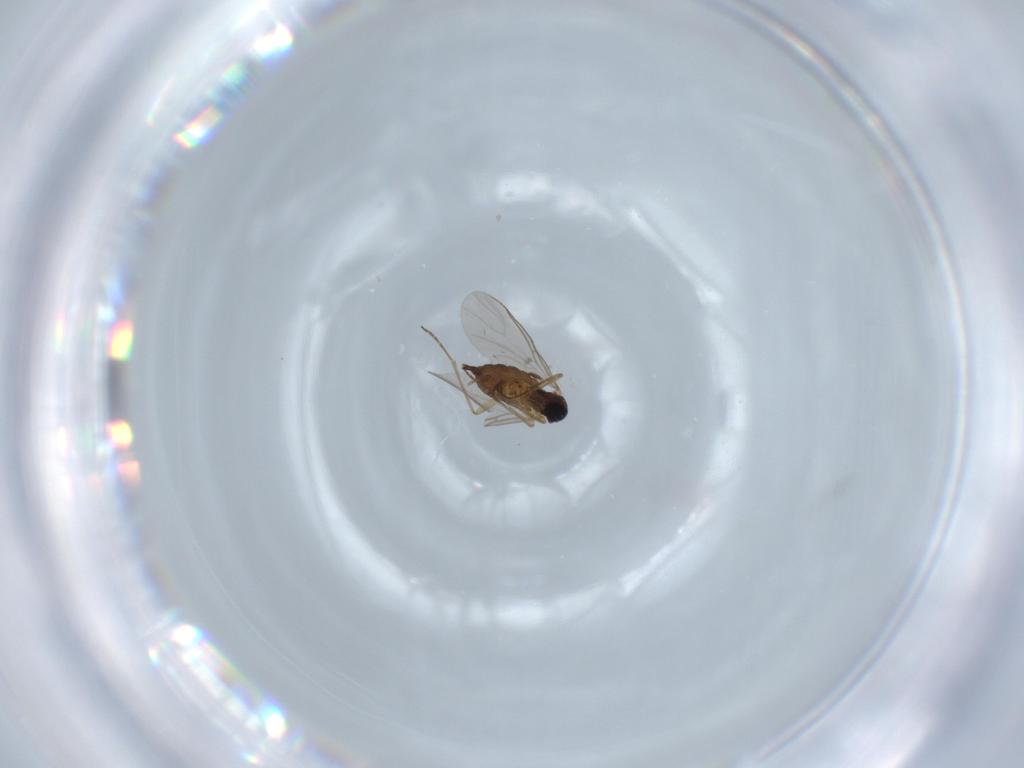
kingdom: Animalia
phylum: Arthropoda
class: Insecta
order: Diptera
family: Sciaridae
